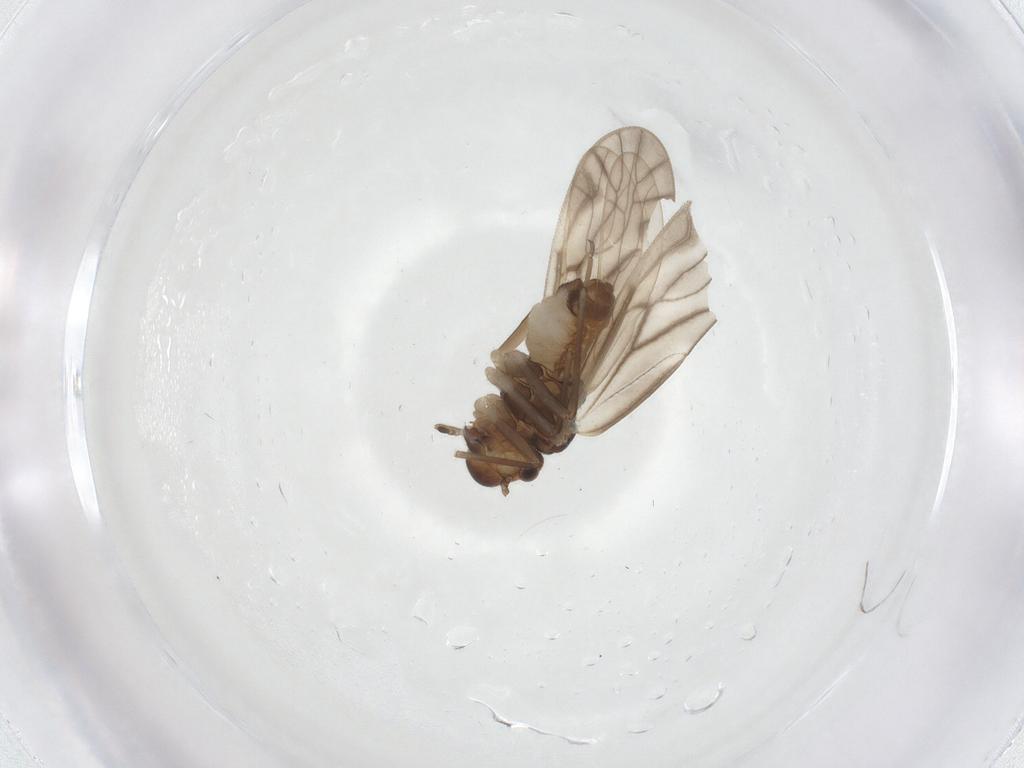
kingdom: Animalia
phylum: Arthropoda
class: Insecta
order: Psocodea
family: Philotarsidae
